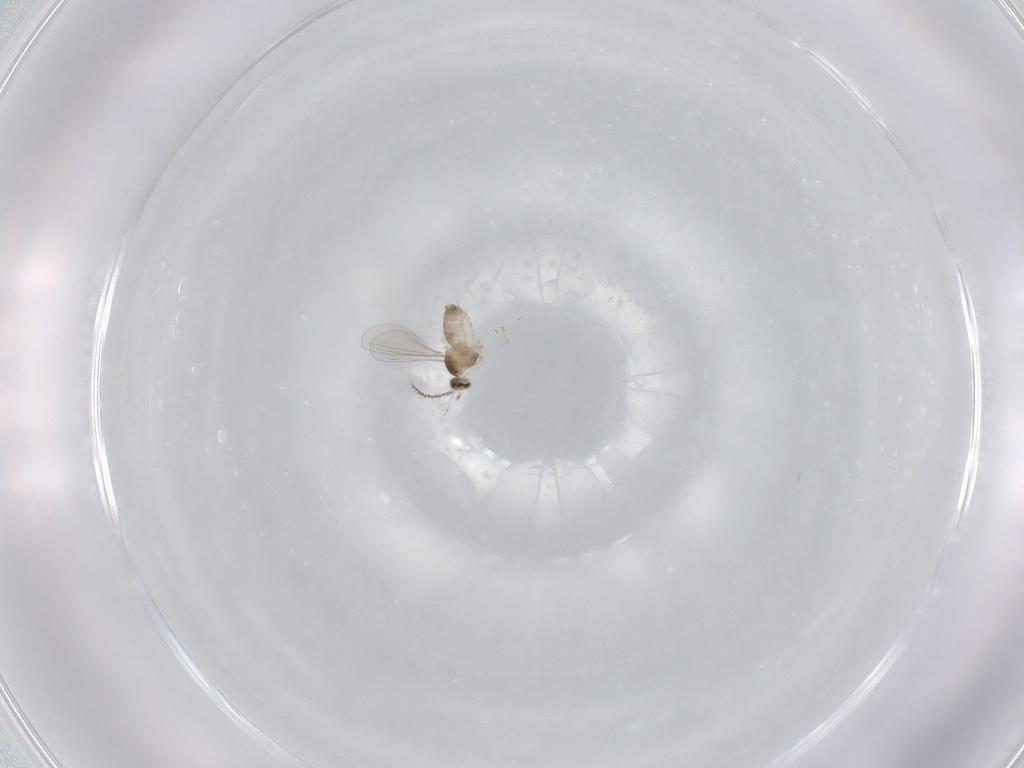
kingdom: Animalia
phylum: Arthropoda
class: Insecta
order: Diptera
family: Cecidomyiidae
